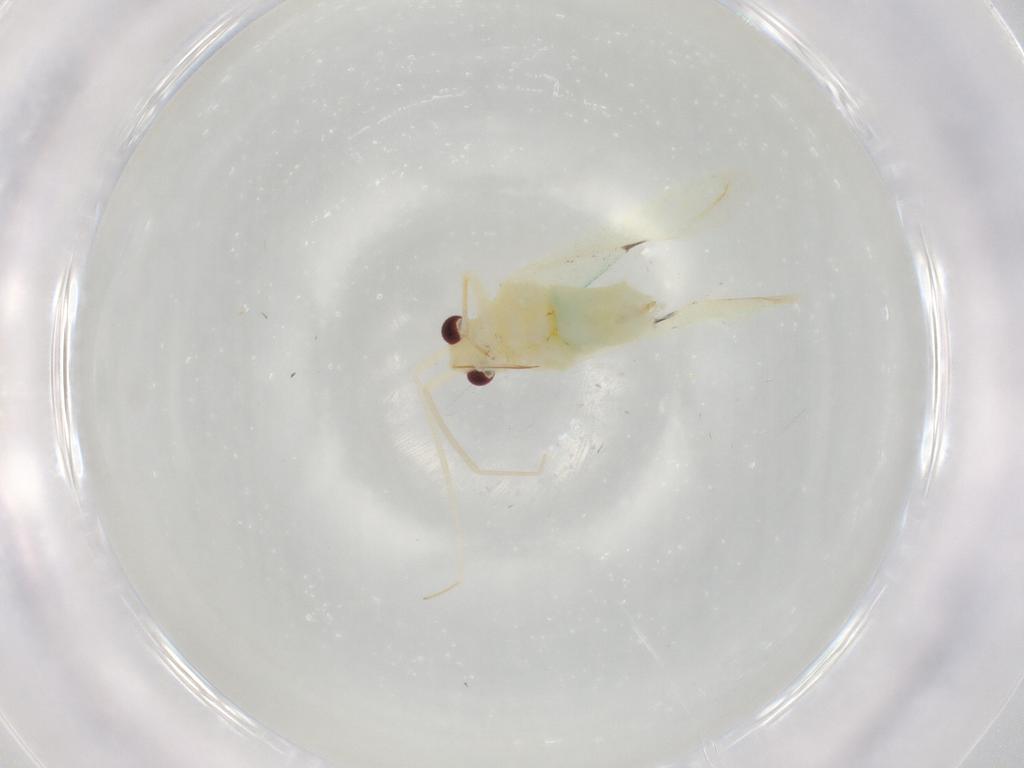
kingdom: Animalia
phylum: Arthropoda
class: Insecta
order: Hemiptera
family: Miridae
